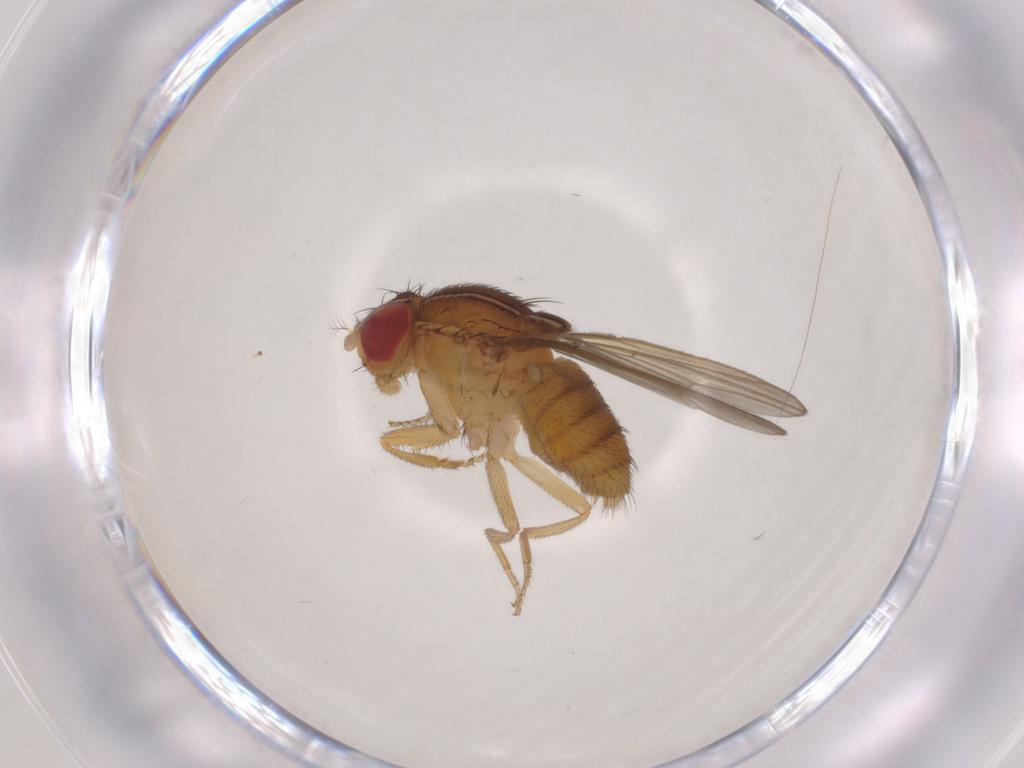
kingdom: Animalia
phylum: Arthropoda
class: Insecta
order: Diptera
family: Drosophilidae
